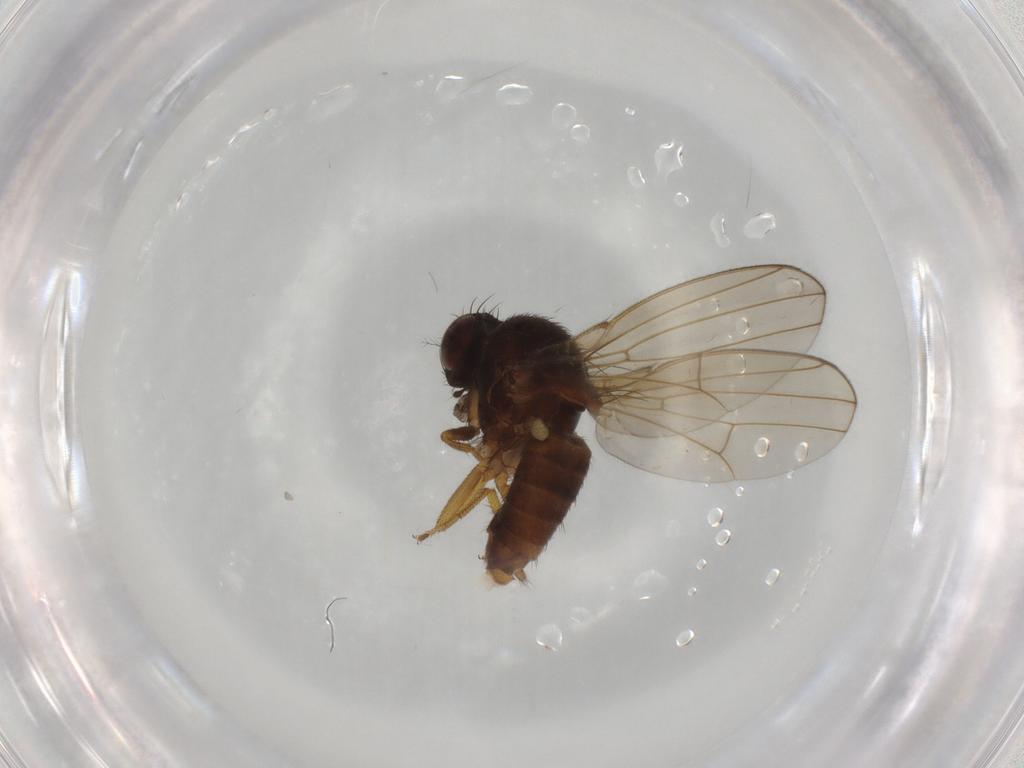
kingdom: Animalia
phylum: Arthropoda
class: Insecta
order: Diptera
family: Drosophilidae
